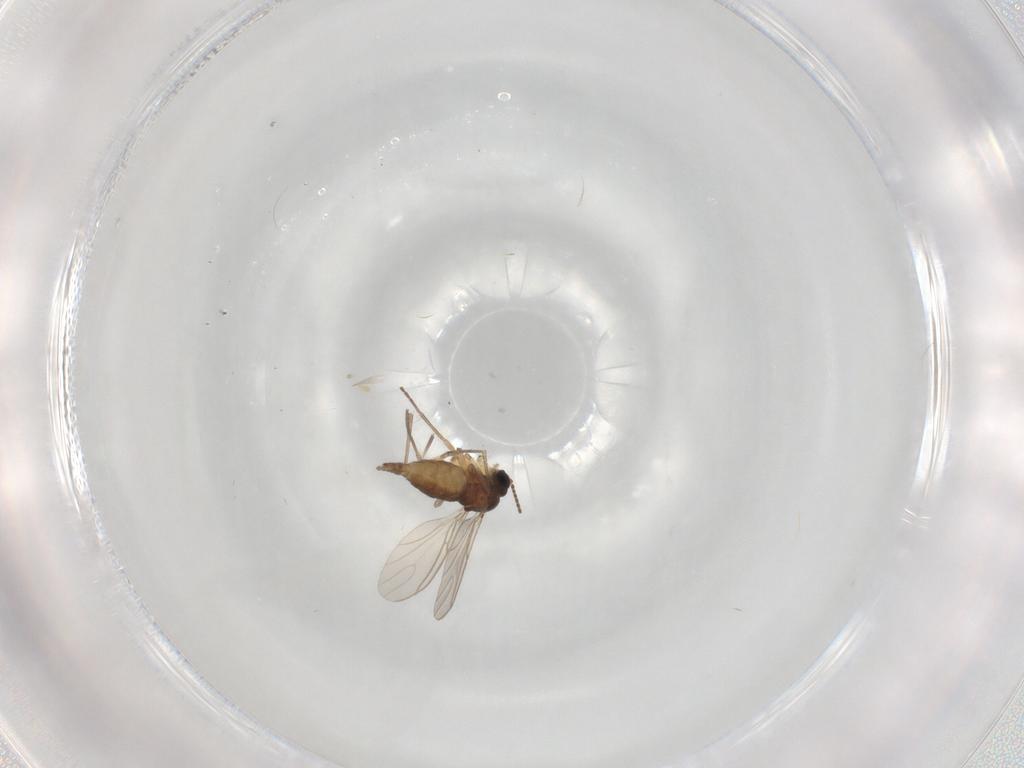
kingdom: Animalia
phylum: Arthropoda
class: Insecta
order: Diptera
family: Sciaridae
